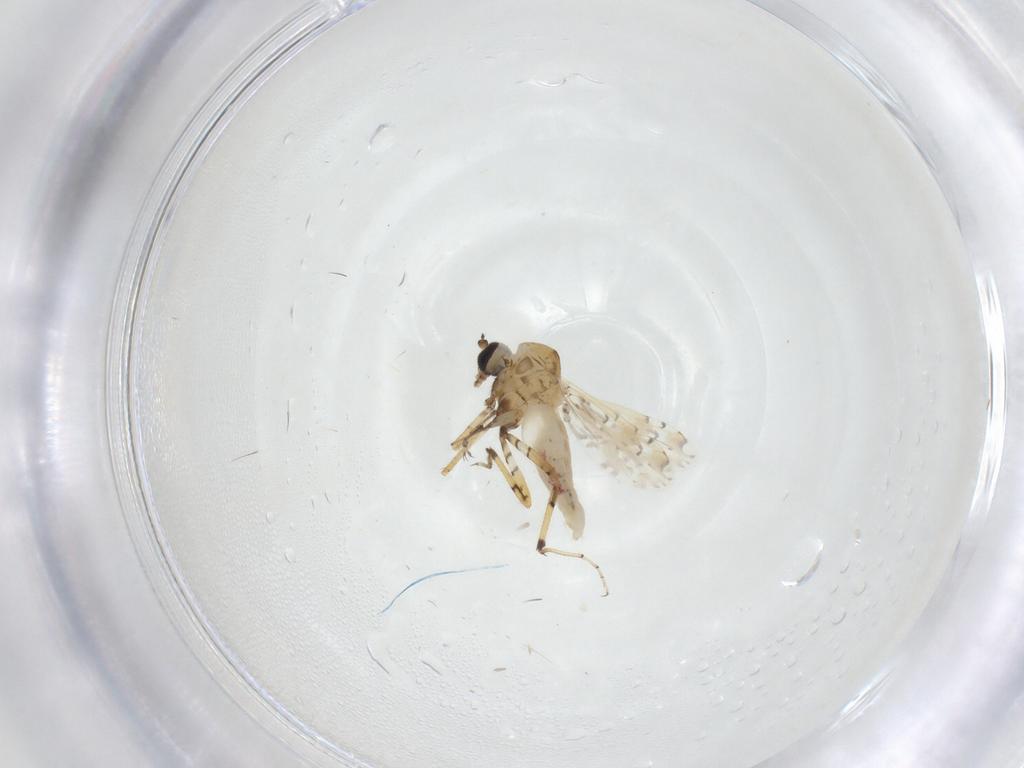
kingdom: Animalia
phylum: Arthropoda
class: Insecta
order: Diptera
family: Ceratopogonidae
